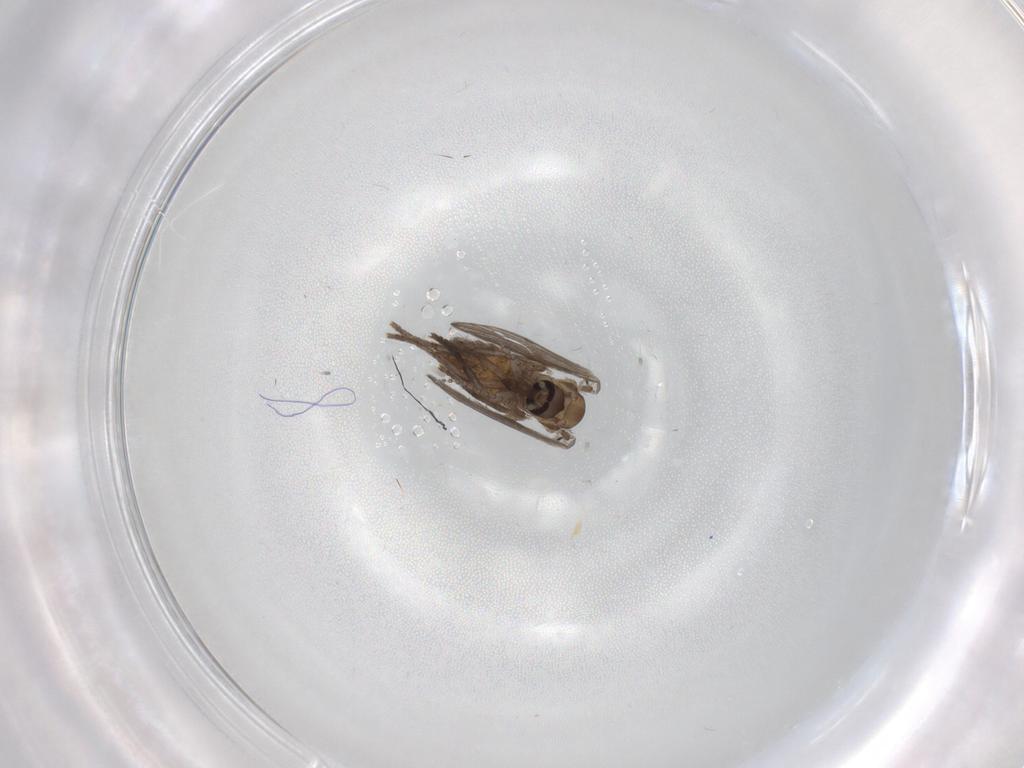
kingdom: Animalia
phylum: Arthropoda
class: Insecta
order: Diptera
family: Psychodidae
